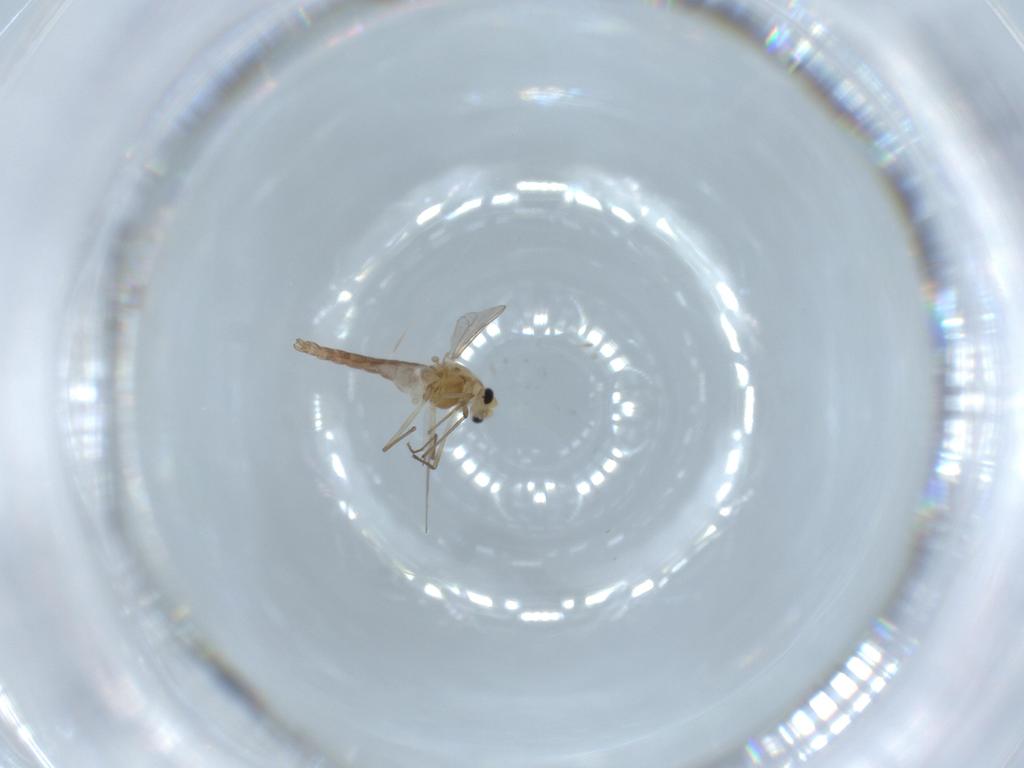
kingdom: Animalia
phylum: Arthropoda
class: Insecta
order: Diptera
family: Chironomidae
